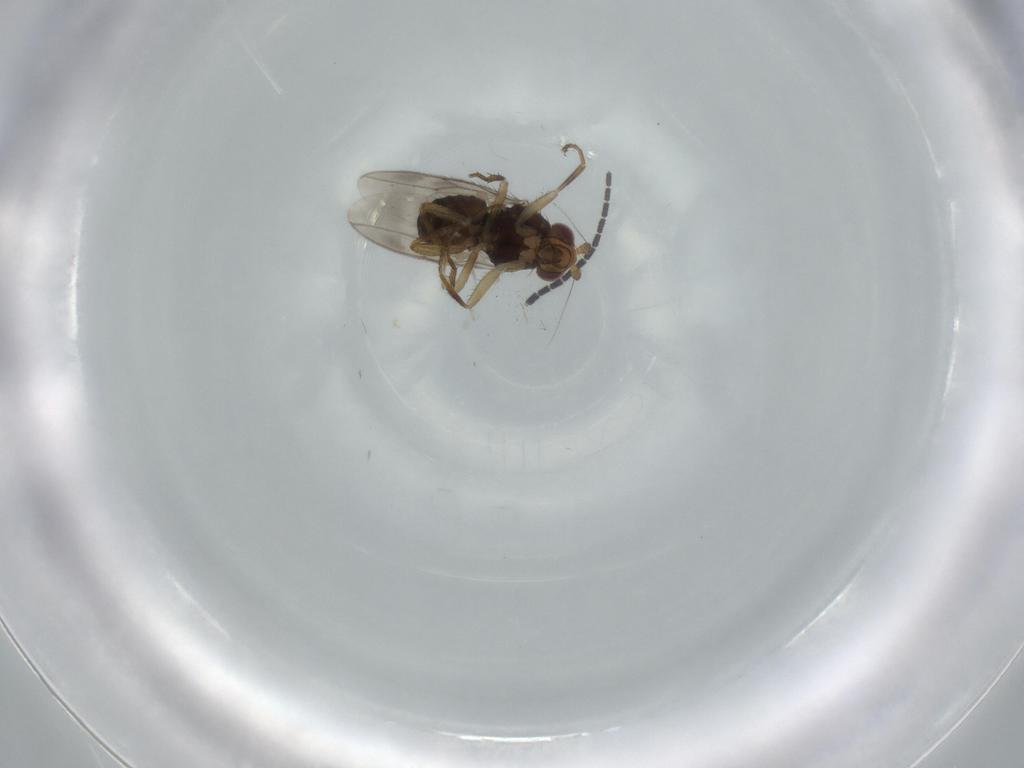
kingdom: Animalia
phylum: Arthropoda
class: Insecta
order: Diptera
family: Sphaeroceridae
